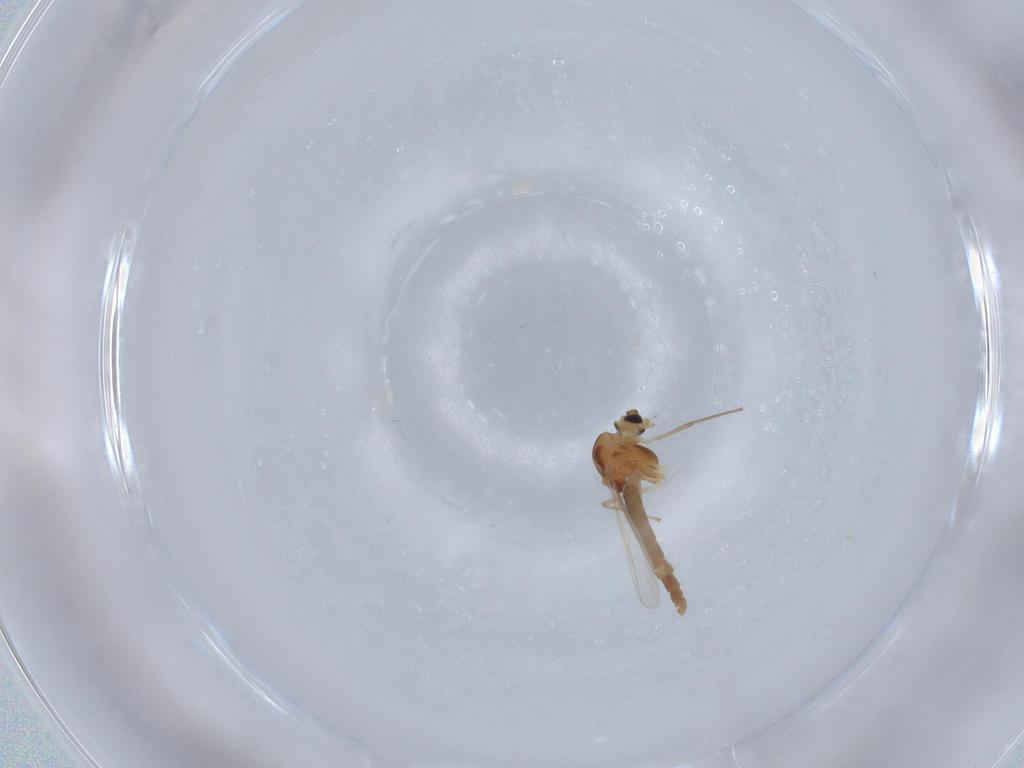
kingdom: Animalia
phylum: Arthropoda
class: Insecta
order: Diptera
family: Chironomidae
